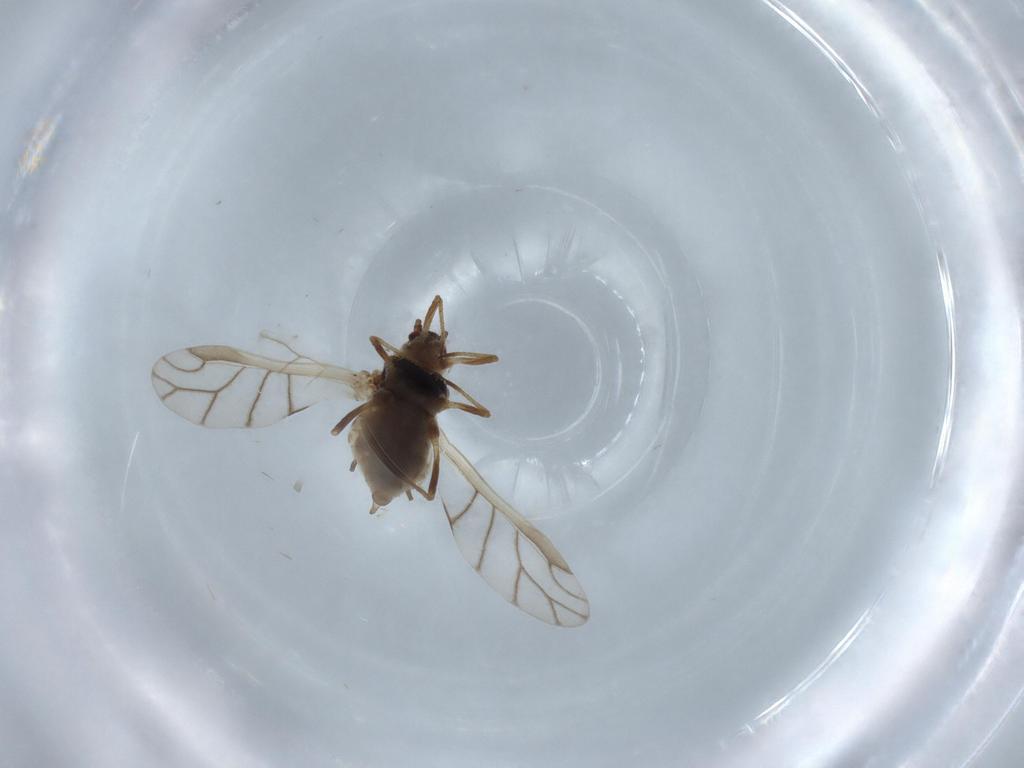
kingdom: Animalia
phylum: Arthropoda
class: Insecta
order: Hemiptera
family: Aphididae
